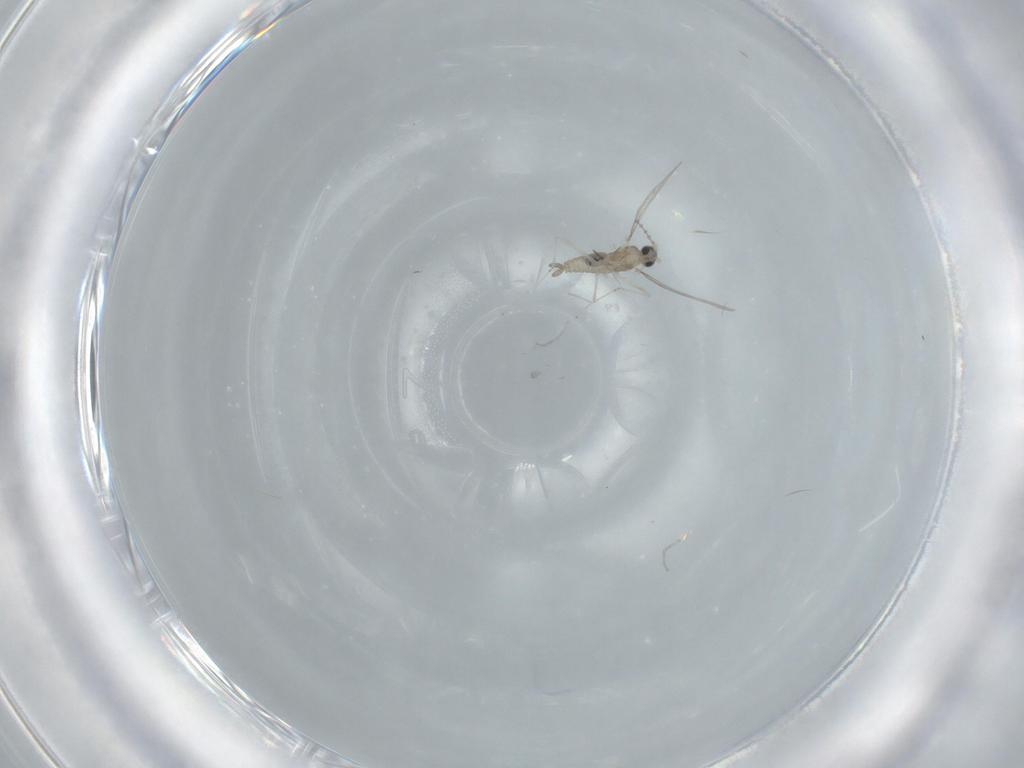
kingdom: Animalia
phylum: Arthropoda
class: Insecta
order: Diptera
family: Cecidomyiidae
